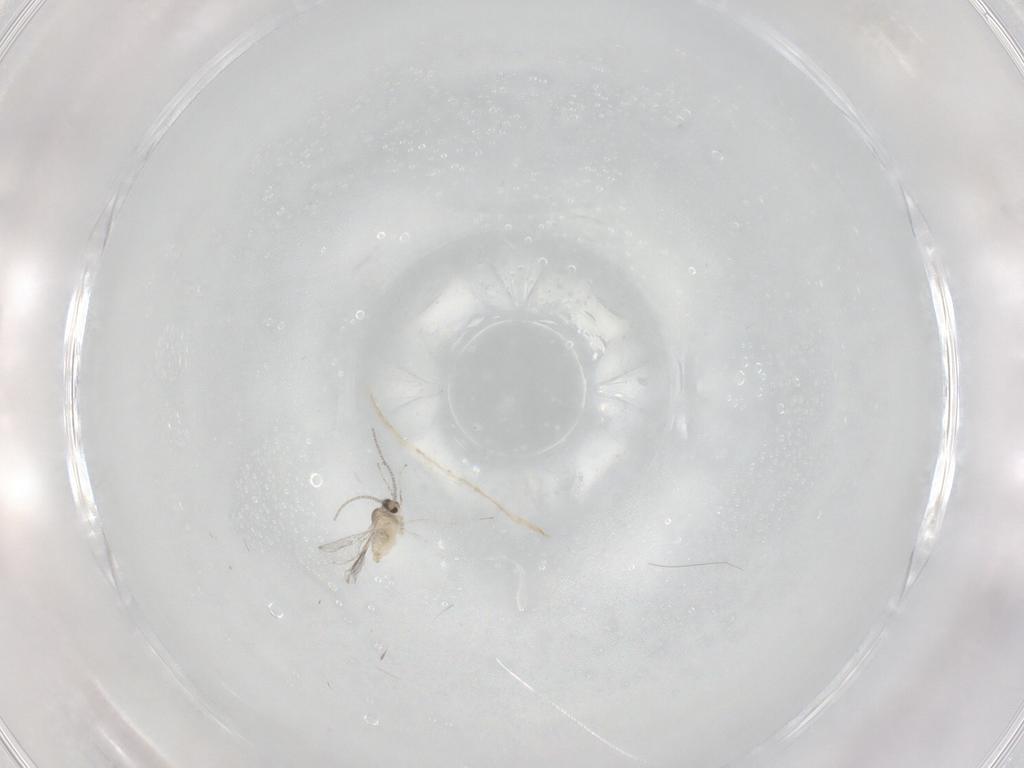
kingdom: Animalia
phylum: Arthropoda
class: Insecta
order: Diptera
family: Cecidomyiidae
